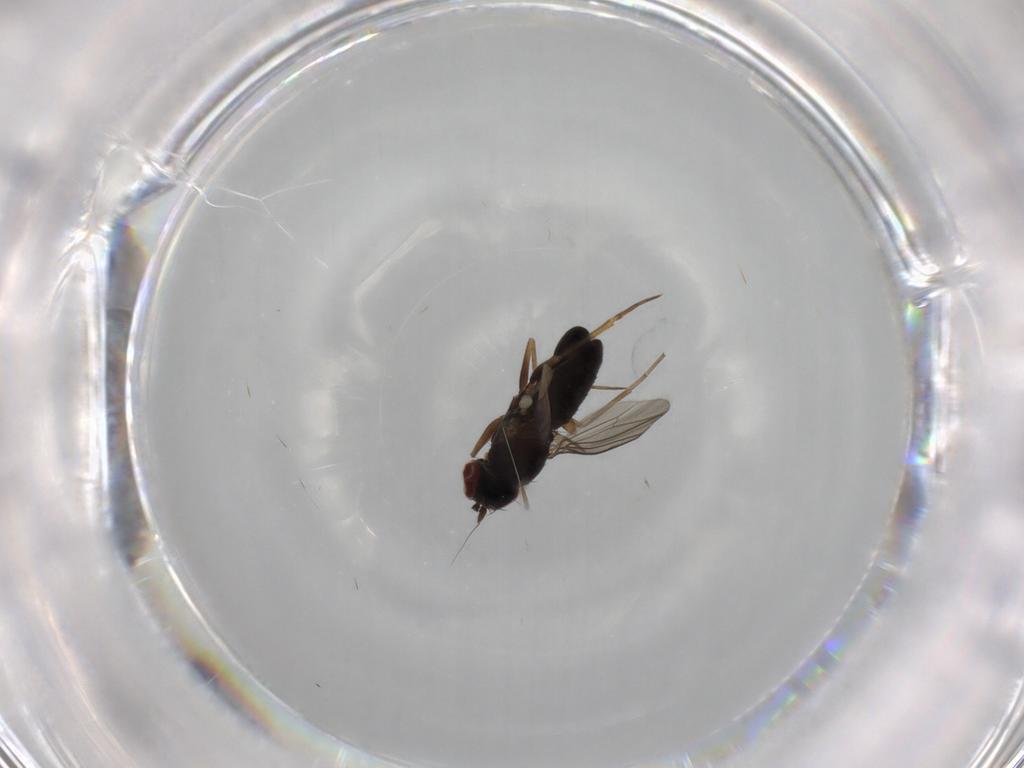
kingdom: Animalia
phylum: Arthropoda
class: Insecta
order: Diptera
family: Dolichopodidae
